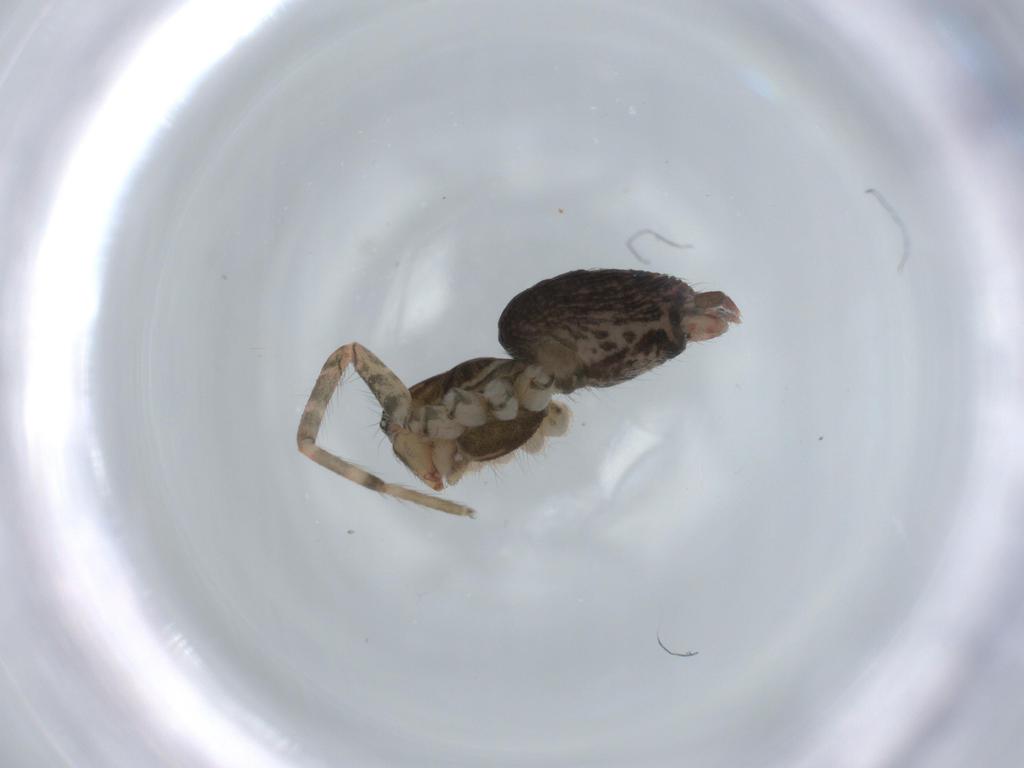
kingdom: Animalia
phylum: Arthropoda
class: Arachnida
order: Araneae
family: Agelenidae
